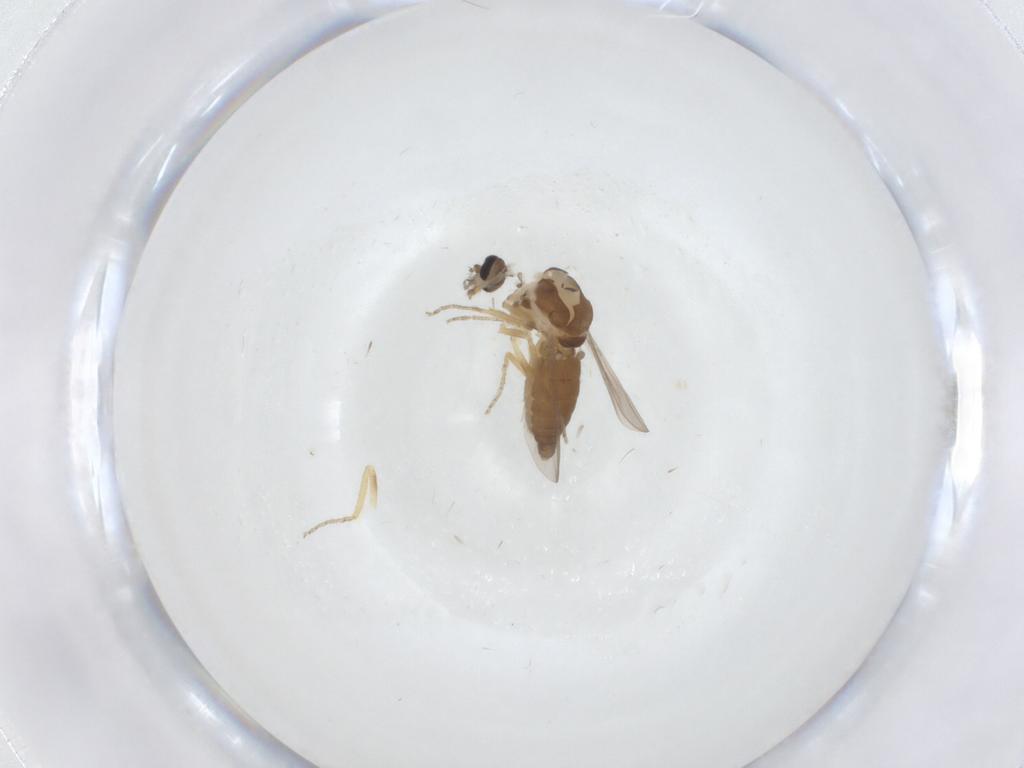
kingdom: Animalia
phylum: Arthropoda
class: Insecta
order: Diptera
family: Ceratopogonidae
